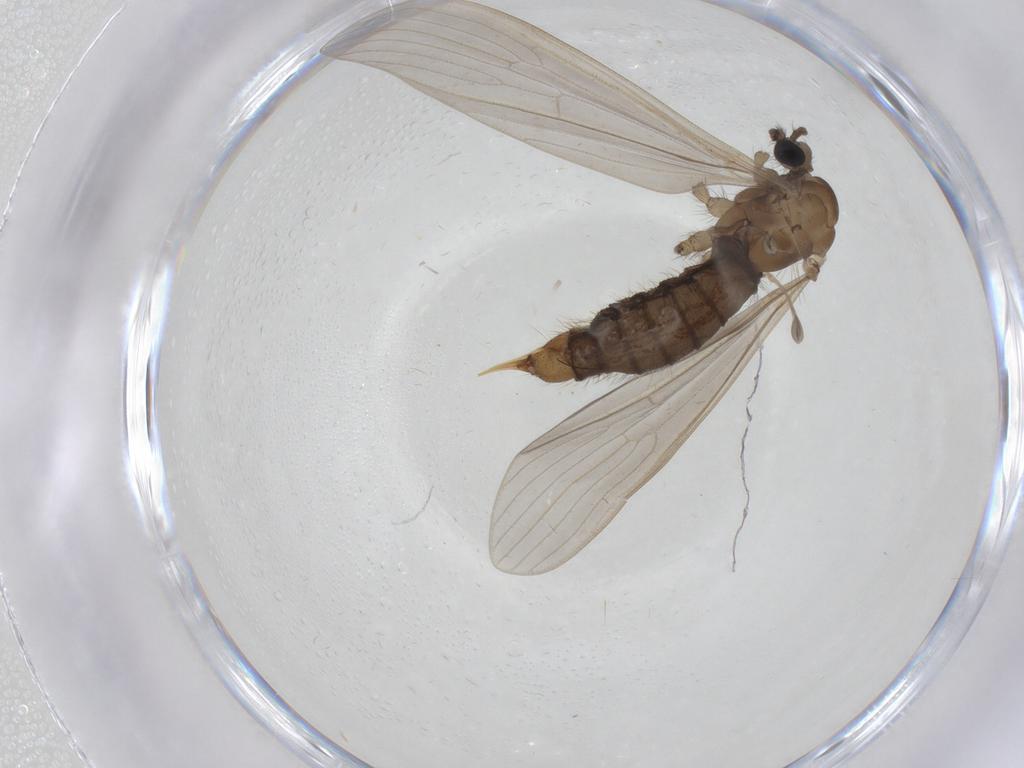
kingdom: Animalia
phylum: Arthropoda
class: Insecta
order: Diptera
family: Limoniidae
